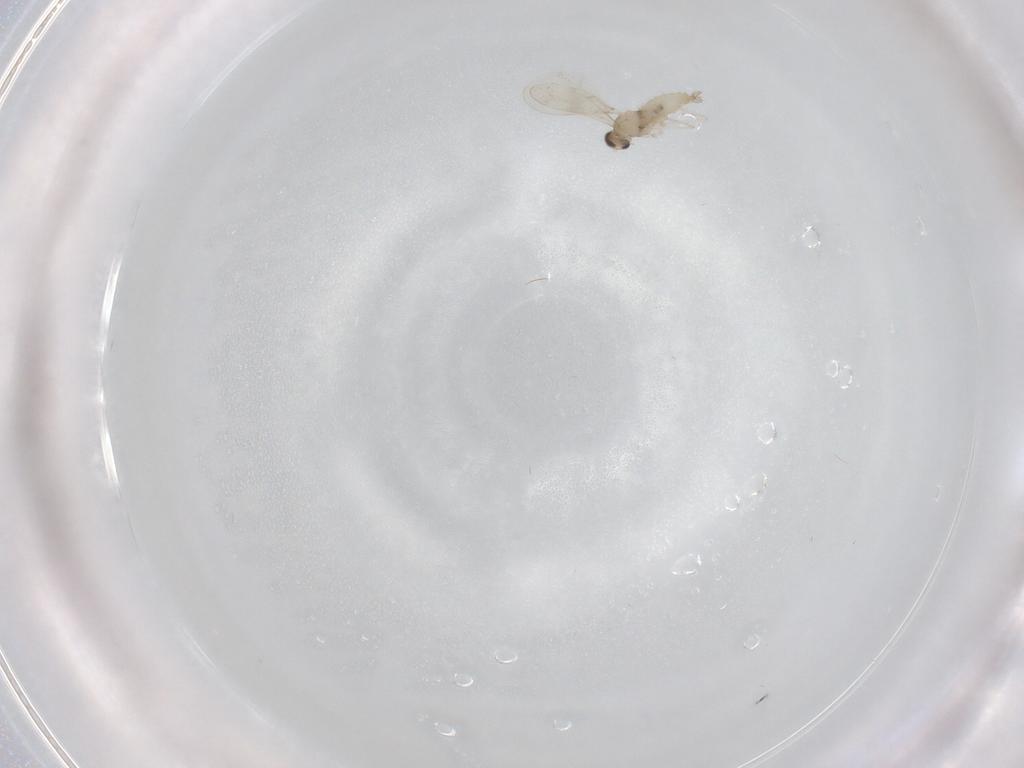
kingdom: Animalia
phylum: Arthropoda
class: Insecta
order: Diptera
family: Cecidomyiidae
